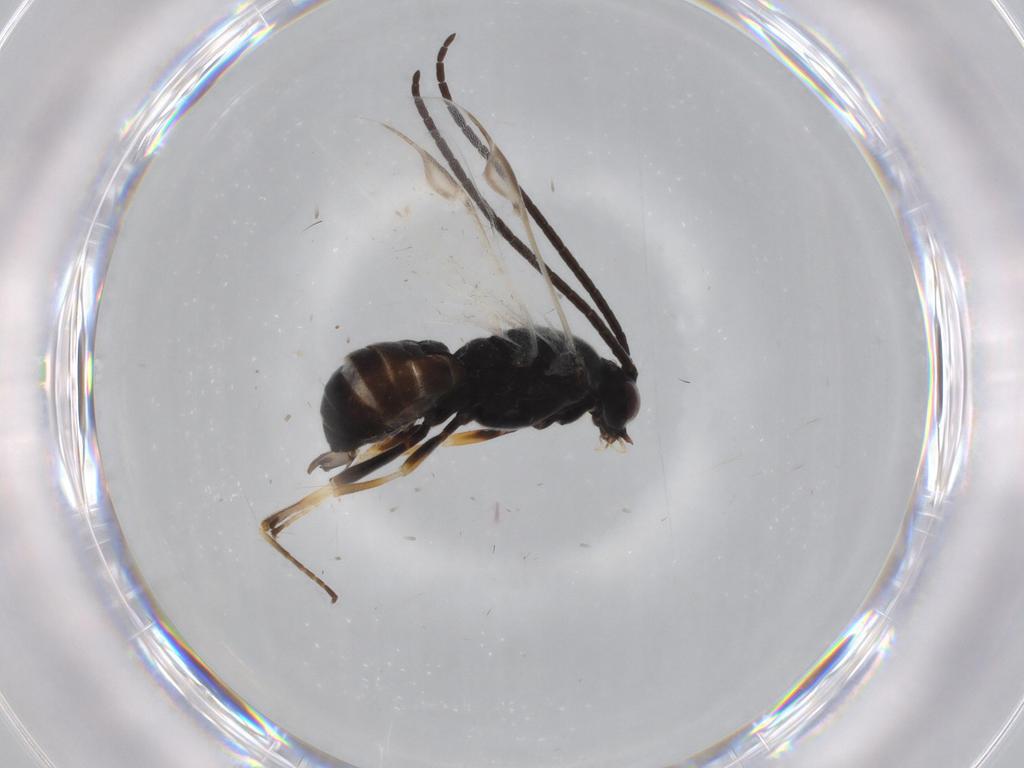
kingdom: Animalia
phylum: Arthropoda
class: Insecta
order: Hymenoptera
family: Braconidae
